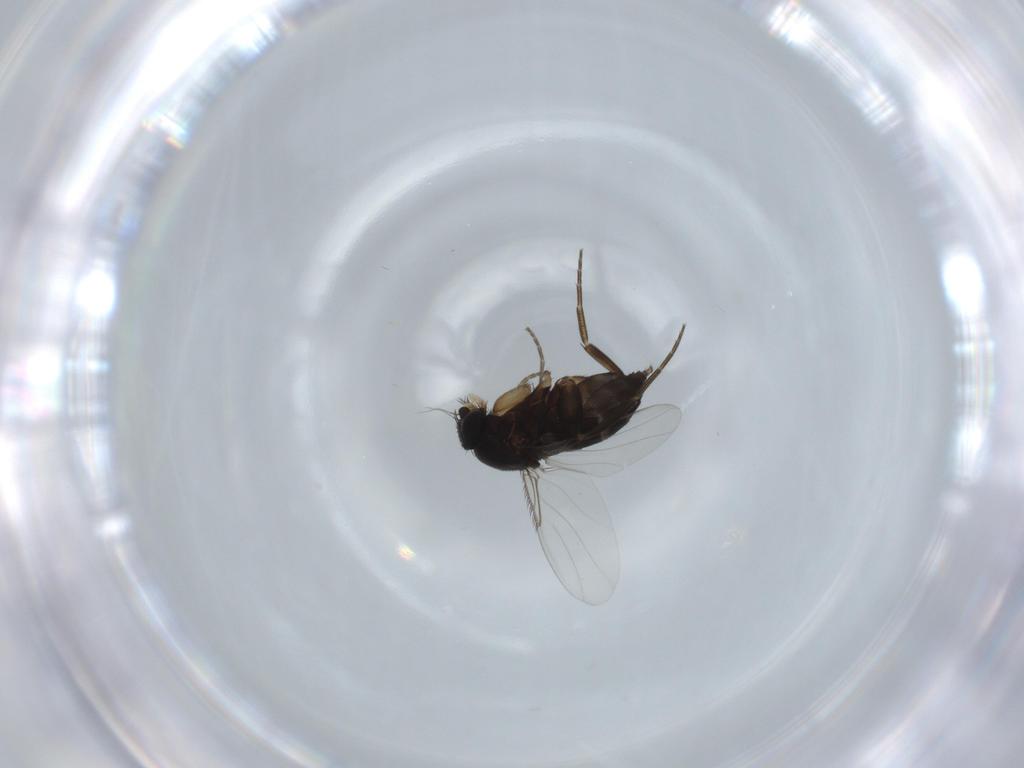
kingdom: Animalia
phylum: Arthropoda
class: Insecta
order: Diptera
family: Phoridae
